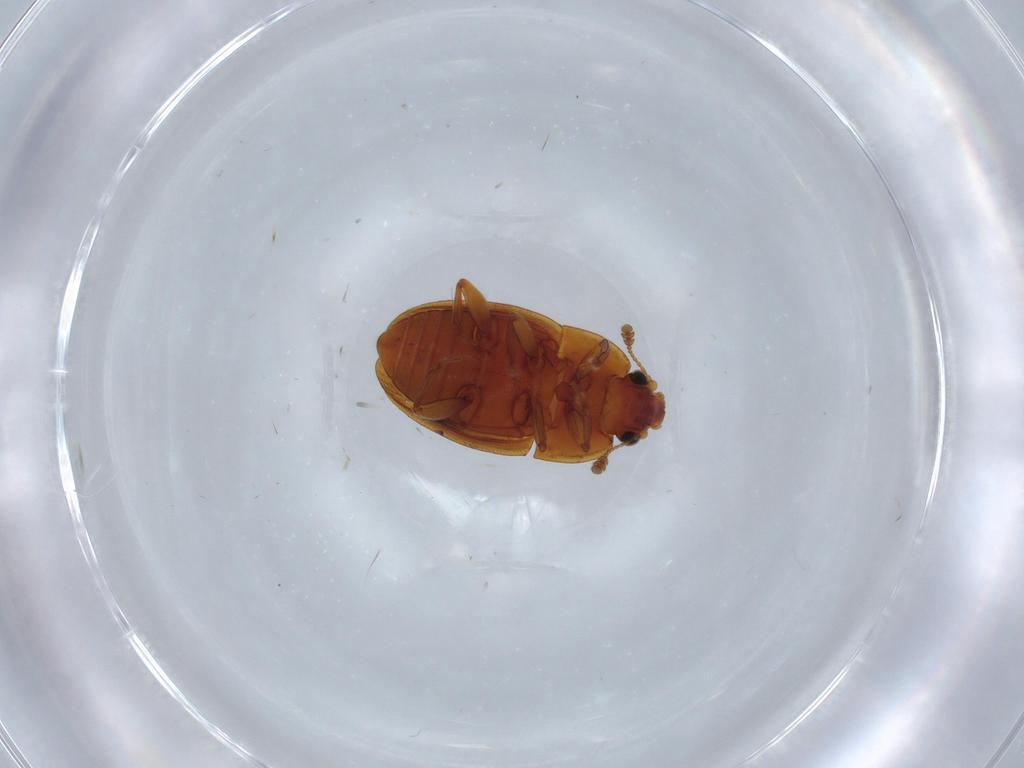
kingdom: Animalia
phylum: Arthropoda
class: Insecta
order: Coleoptera
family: Nitidulidae
